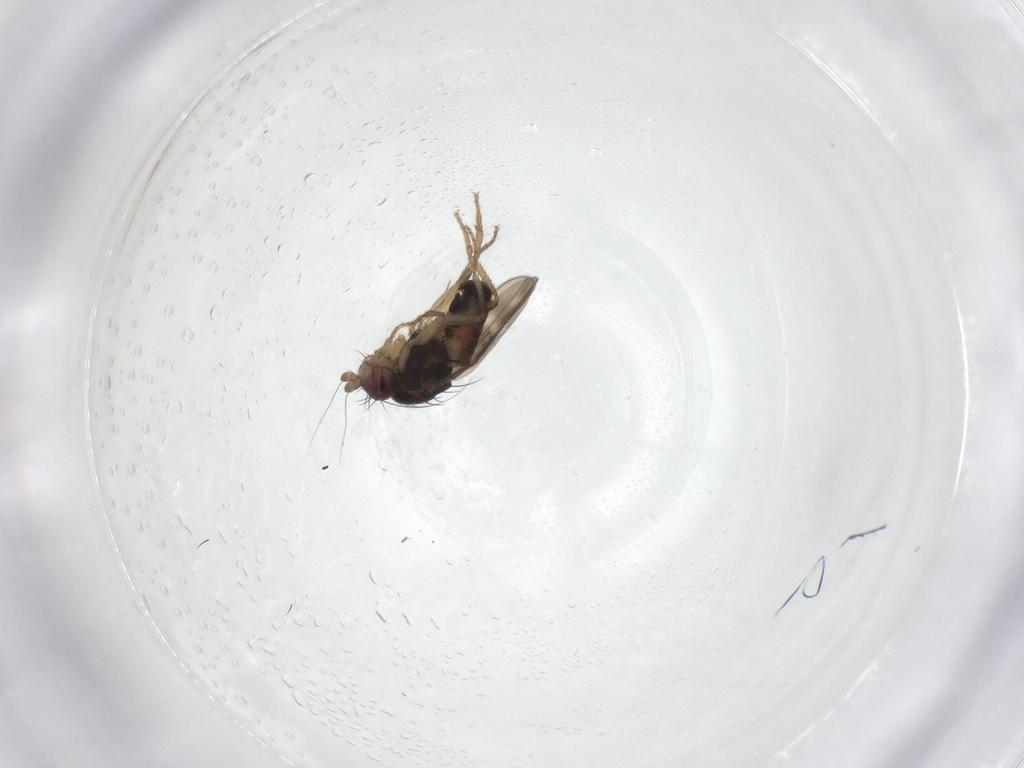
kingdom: Animalia
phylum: Arthropoda
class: Insecta
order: Diptera
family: Sphaeroceridae
